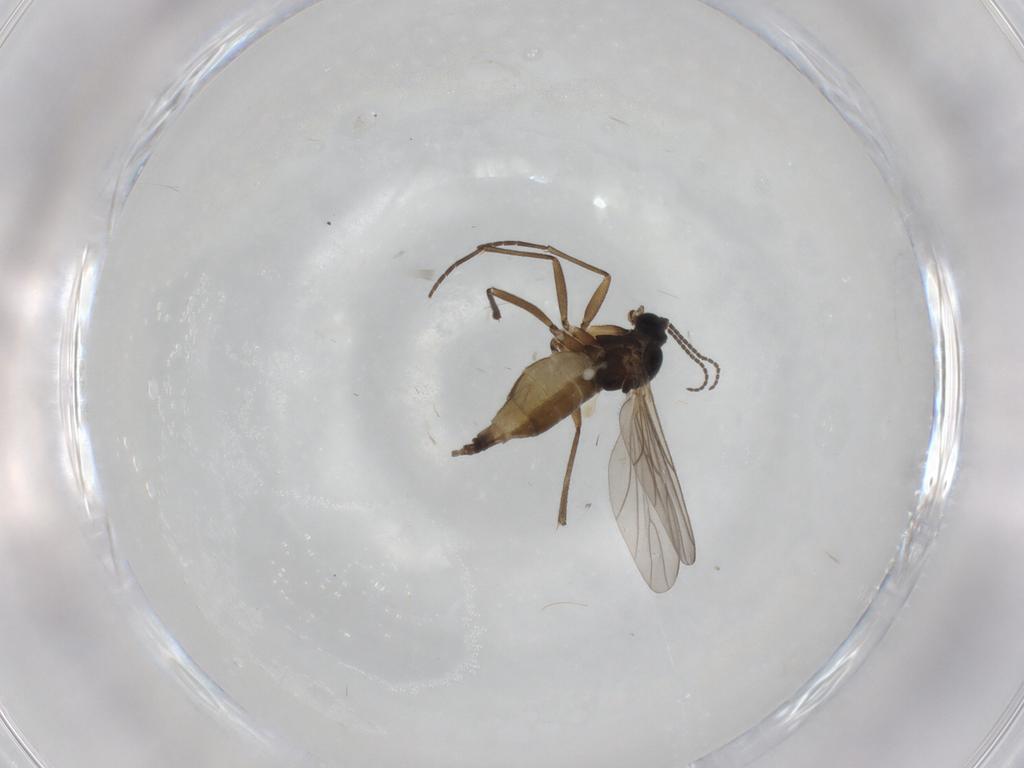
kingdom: Animalia
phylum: Arthropoda
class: Insecta
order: Diptera
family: Sciaridae
